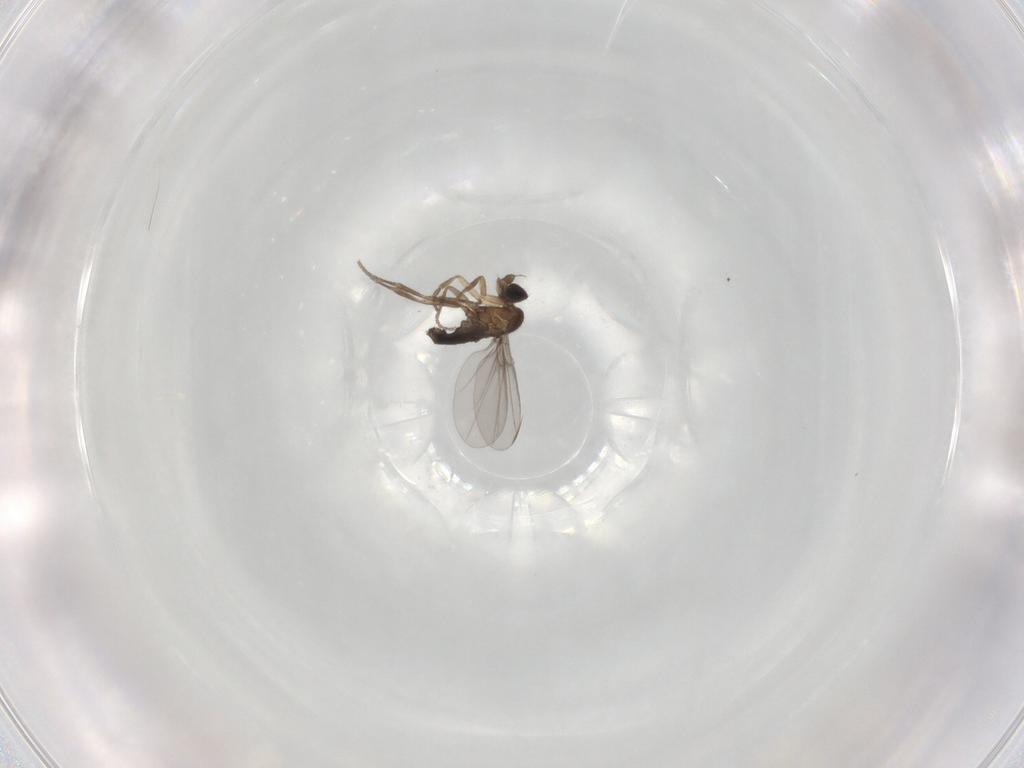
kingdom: Animalia
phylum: Arthropoda
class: Insecta
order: Diptera
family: Phoridae
